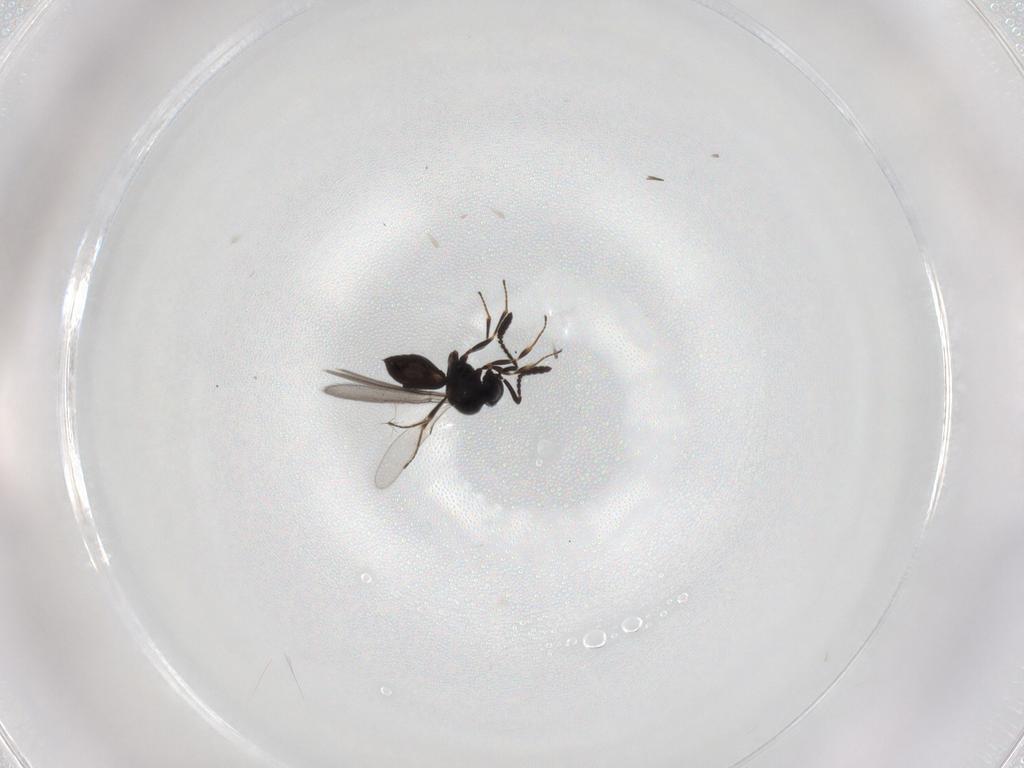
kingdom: Animalia
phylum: Arthropoda
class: Insecta
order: Hymenoptera
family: Scelionidae
